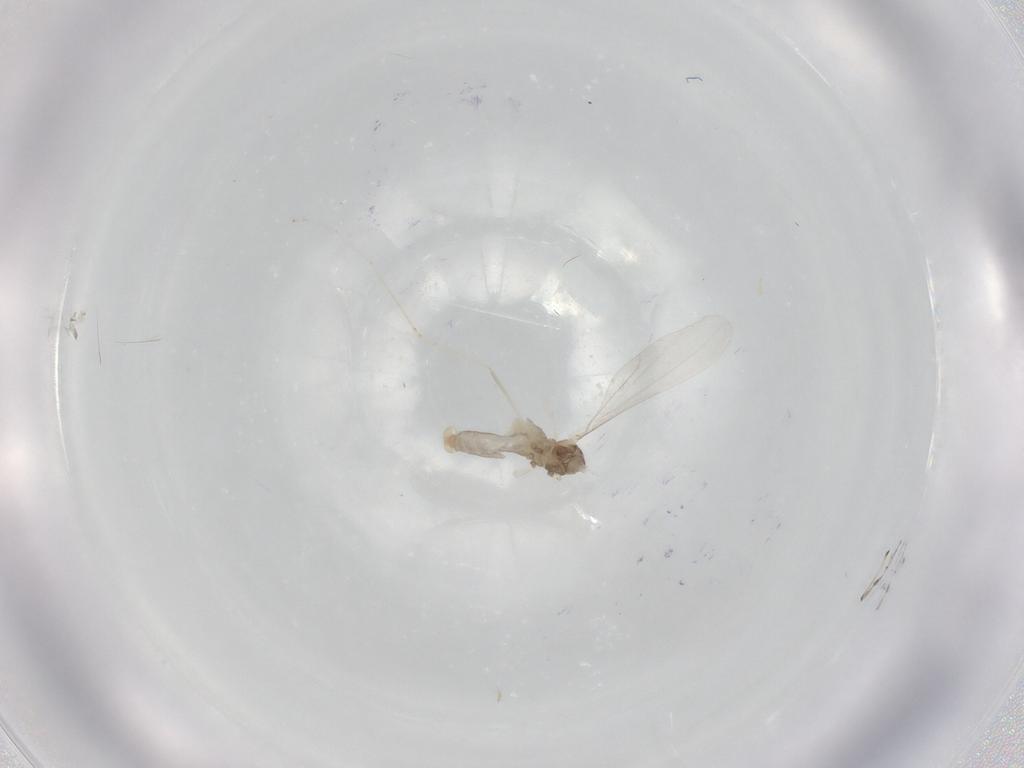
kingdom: Animalia
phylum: Arthropoda
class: Insecta
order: Diptera
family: Cecidomyiidae
